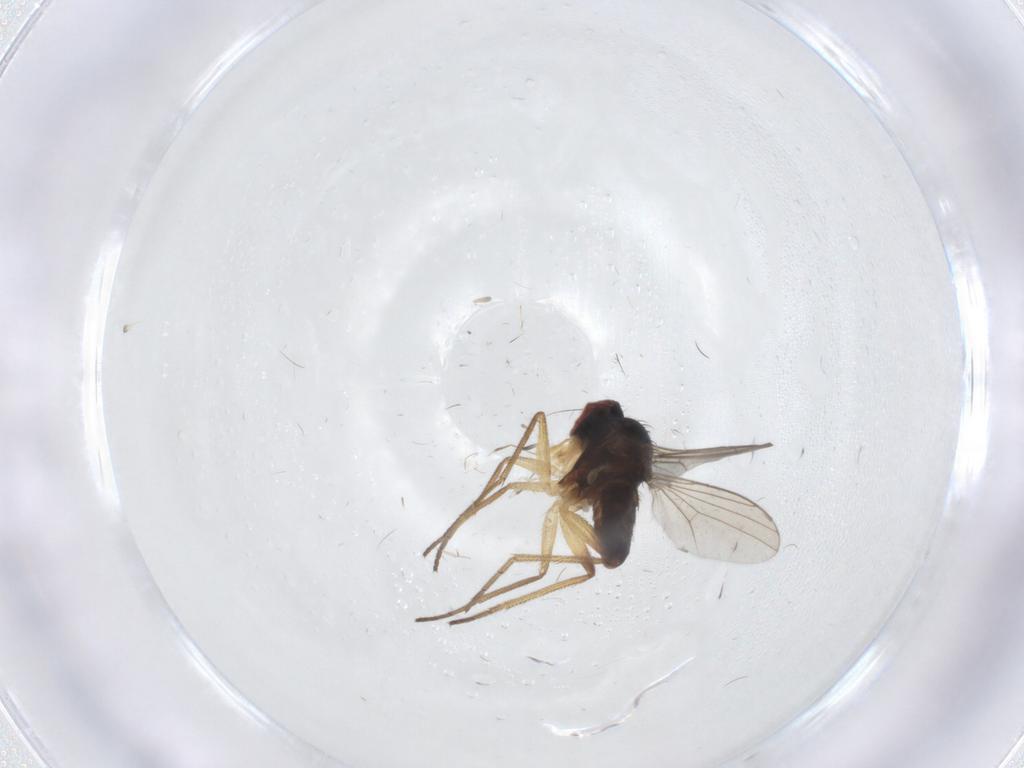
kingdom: Animalia
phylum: Arthropoda
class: Insecta
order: Diptera
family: Dolichopodidae
